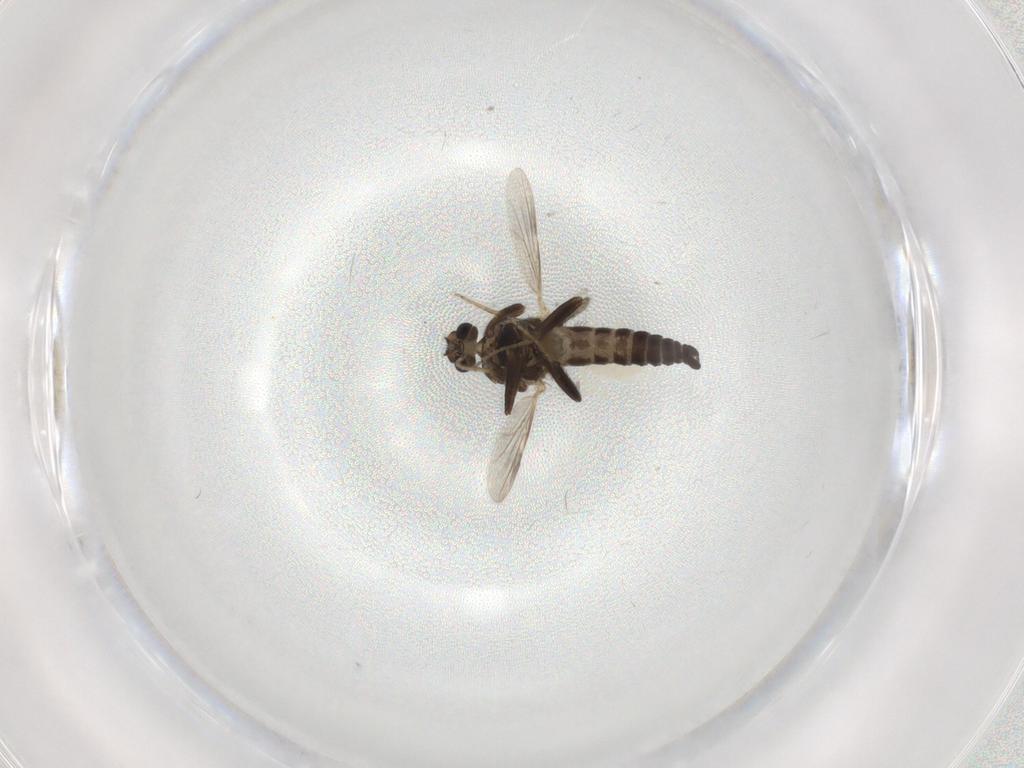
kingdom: Animalia
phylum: Arthropoda
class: Insecta
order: Diptera
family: Ceratopogonidae
